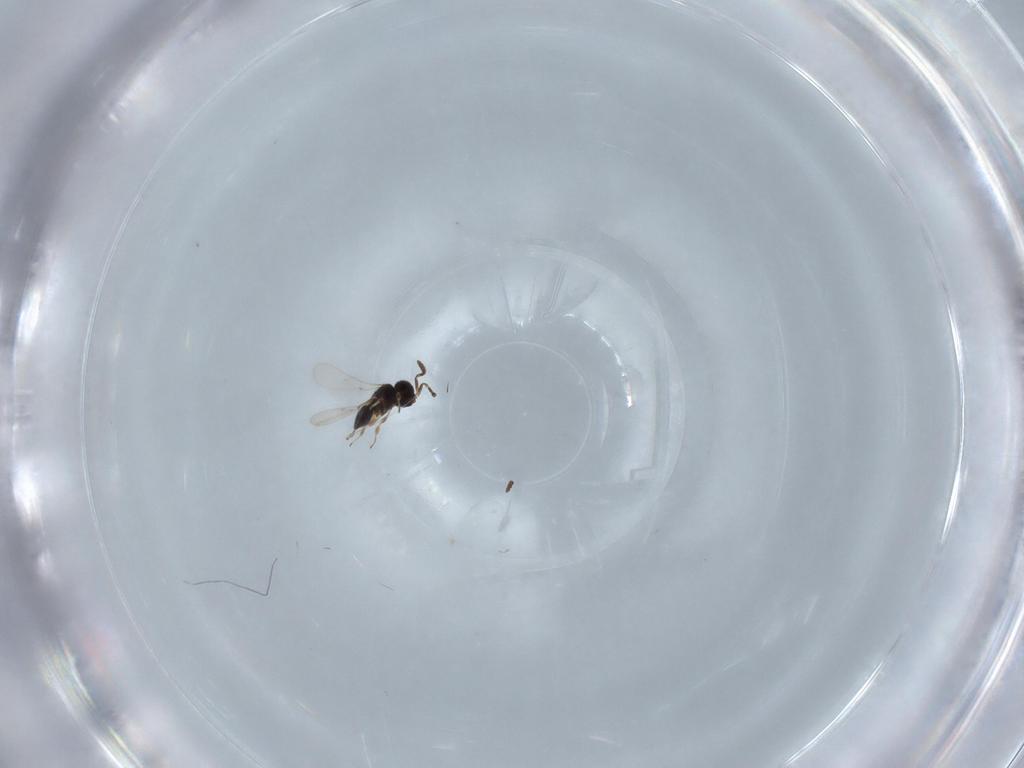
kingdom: Animalia
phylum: Arthropoda
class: Insecta
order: Hymenoptera
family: Scelionidae
